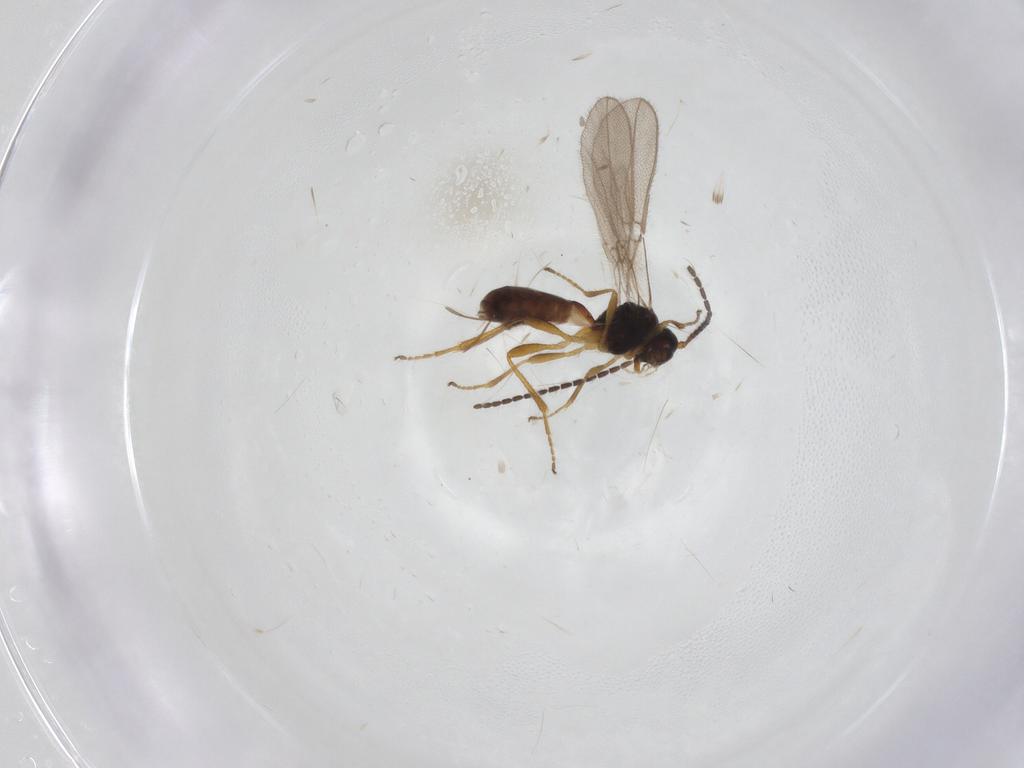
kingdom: Animalia
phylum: Arthropoda
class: Insecta
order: Hymenoptera
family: Braconidae
